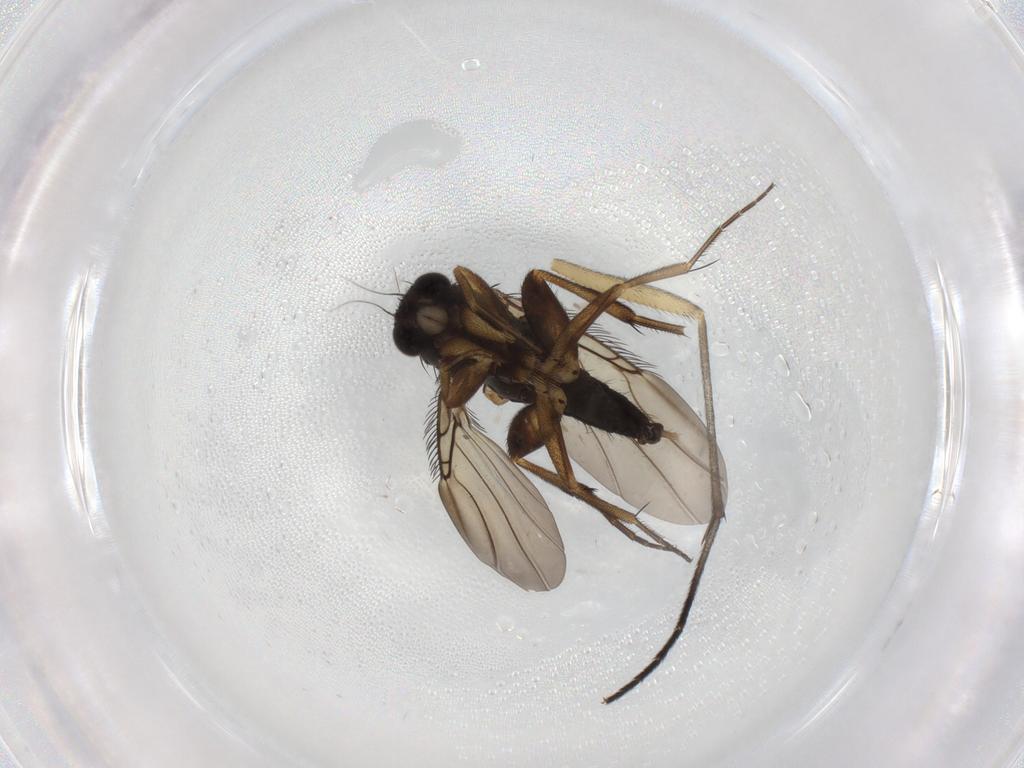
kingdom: Animalia
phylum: Arthropoda
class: Insecta
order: Diptera
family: Phoridae
